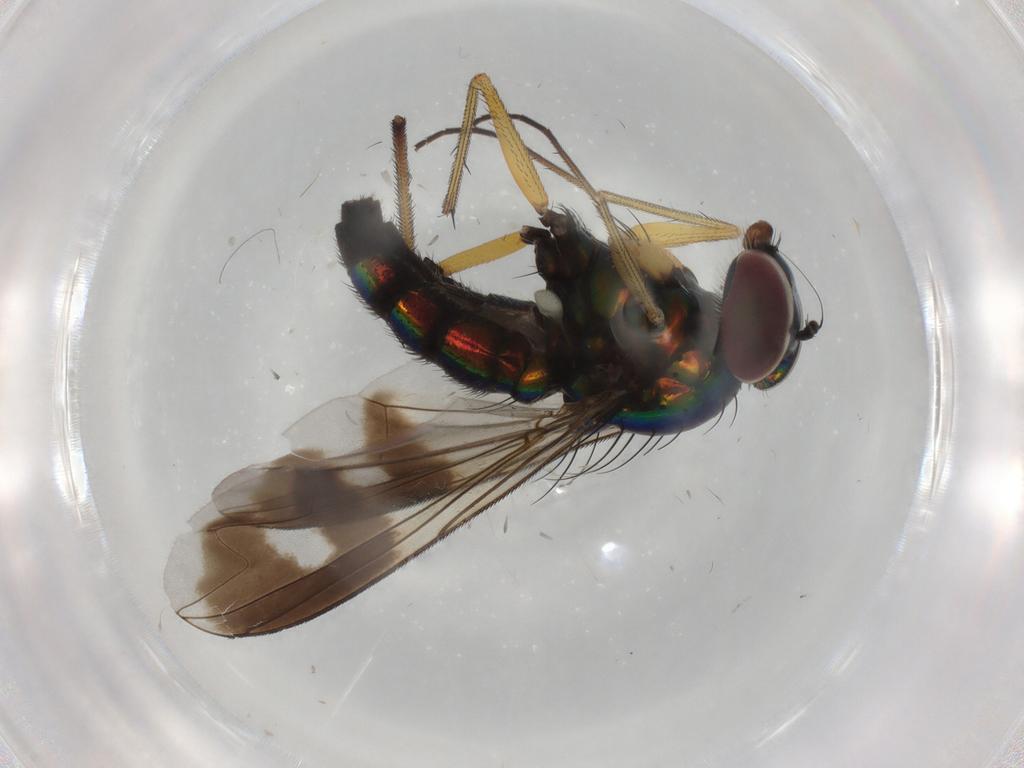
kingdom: Animalia
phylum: Arthropoda
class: Insecta
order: Diptera
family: Dolichopodidae
